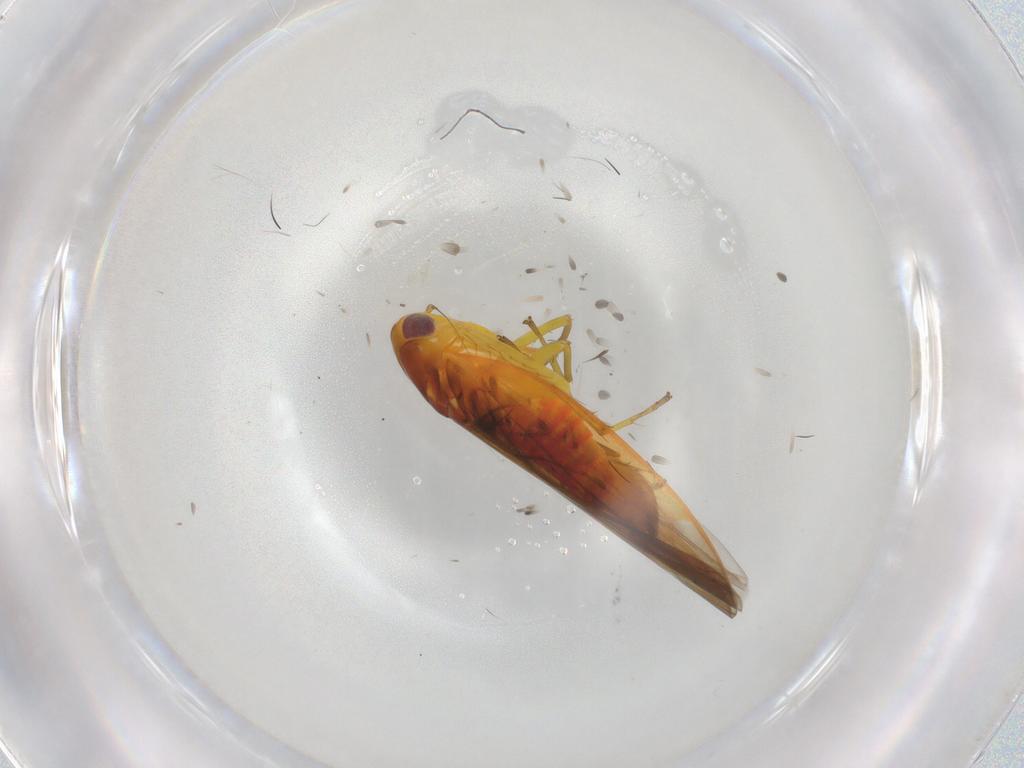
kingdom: Animalia
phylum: Arthropoda
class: Insecta
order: Hemiptera
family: Cicadellidae
